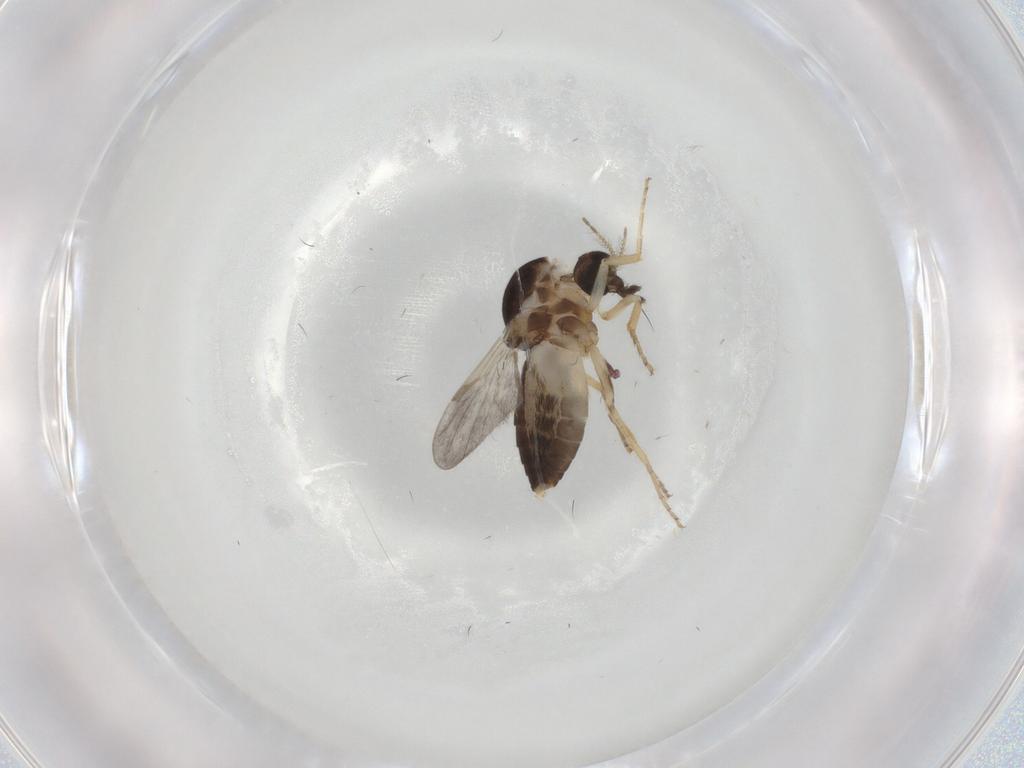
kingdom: Animalia
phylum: Arthropoda
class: Insecta
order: Diptera
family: Ceratopogonidae
